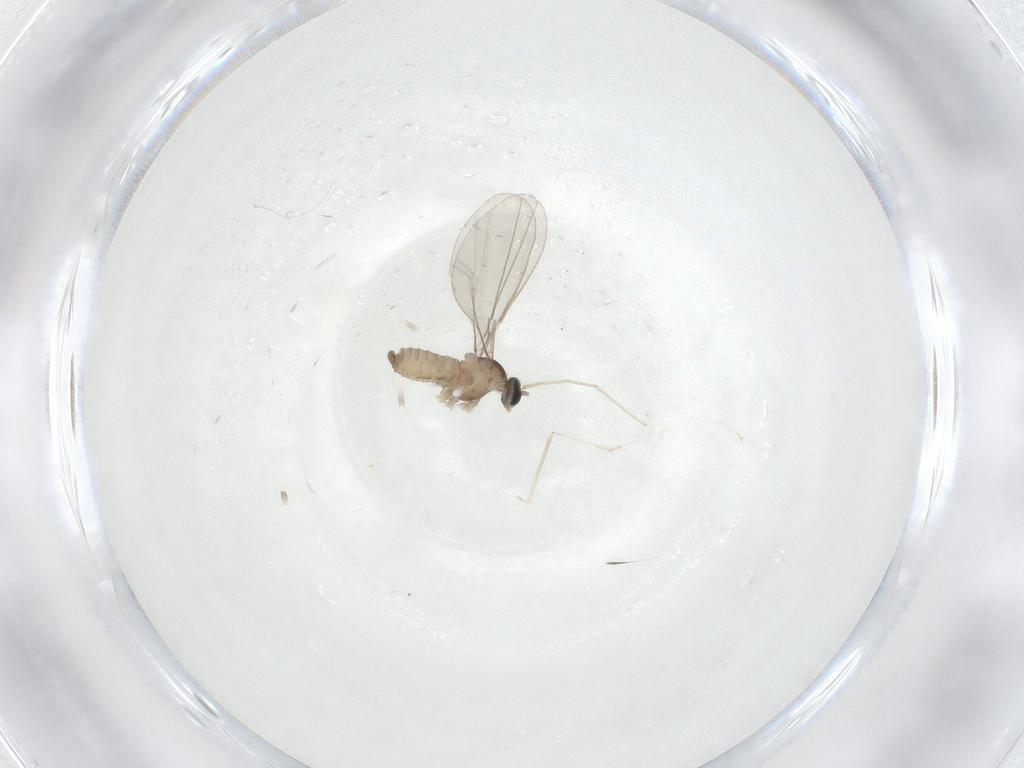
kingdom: Animalia
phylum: Arthropoda
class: Insecta
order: Diptera
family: Cecidomyiidae
